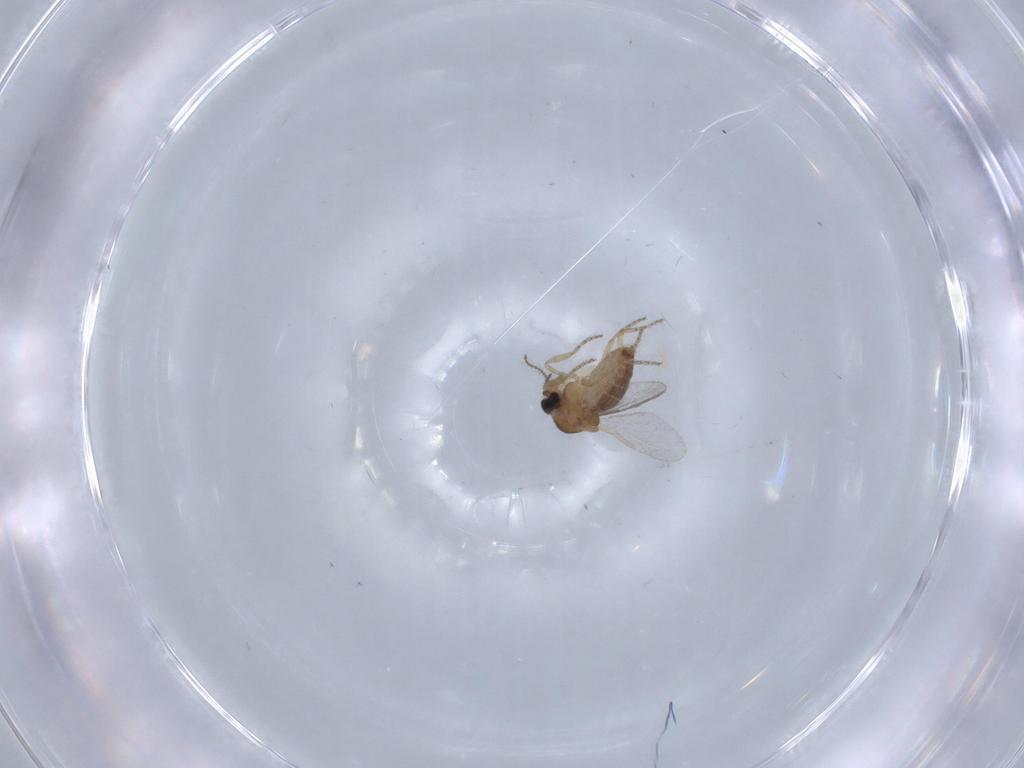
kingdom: Animalia
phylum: Arthropoda
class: Insecta
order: Diptera
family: Ceratopogonidae
